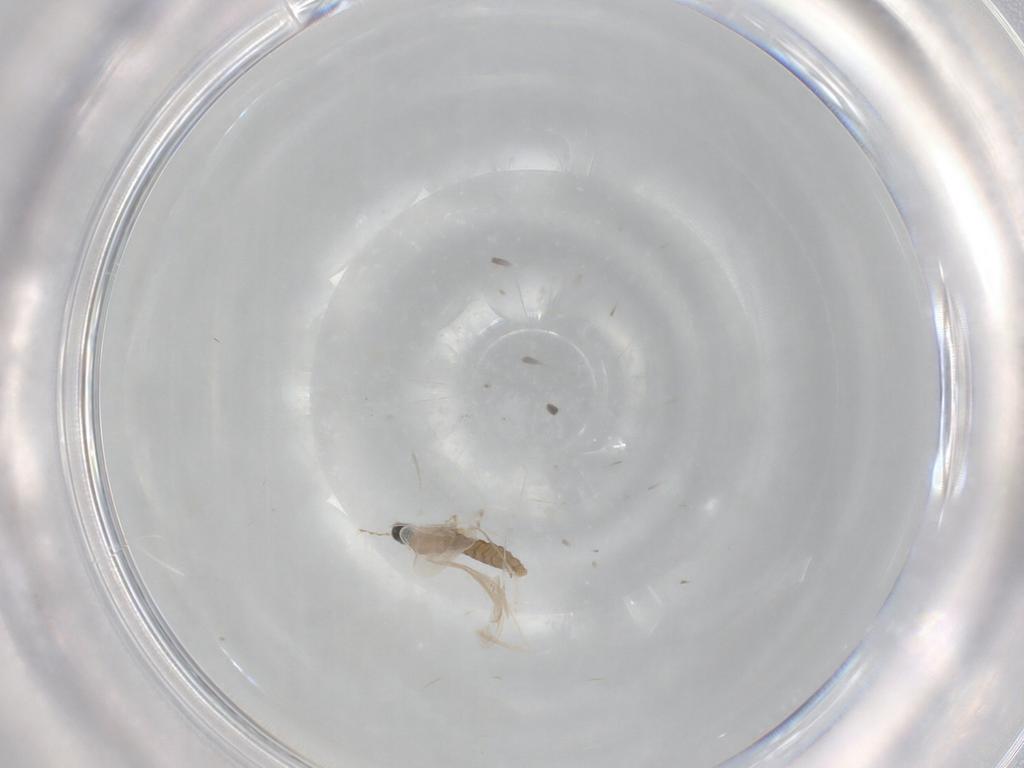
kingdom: Animalia
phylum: Arthropoda
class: Insecta
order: Diptera
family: Cecidomyiidae
